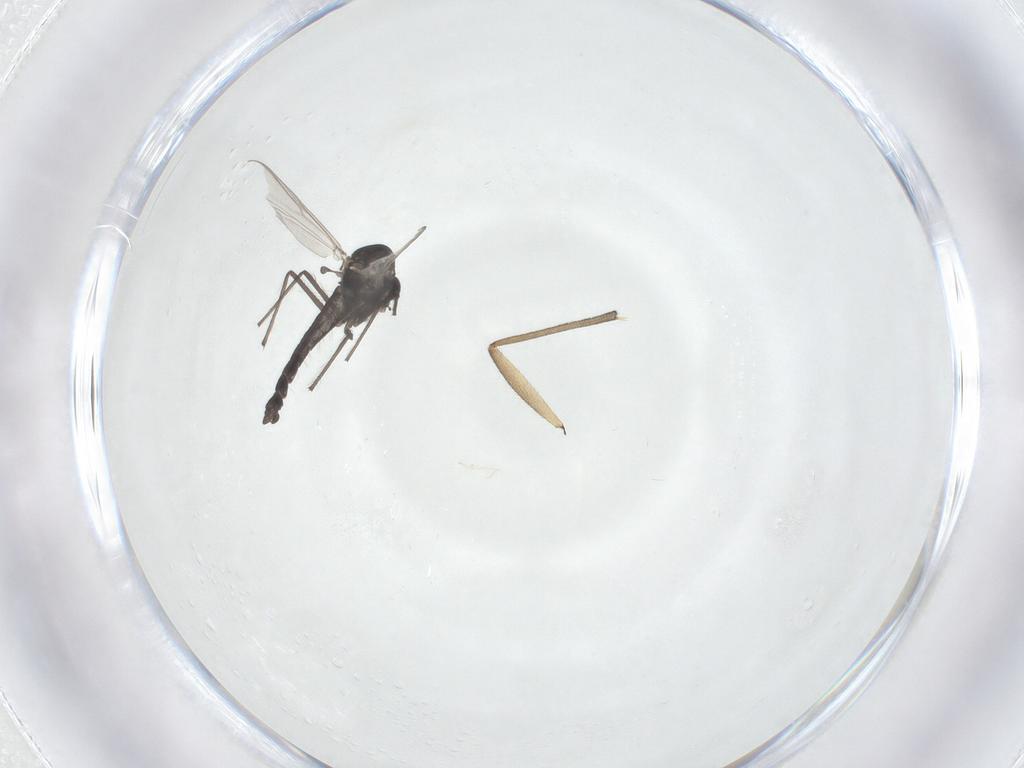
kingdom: Animalia
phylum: Arthropoda
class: Insecta
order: Diptera
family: Sciaridae
